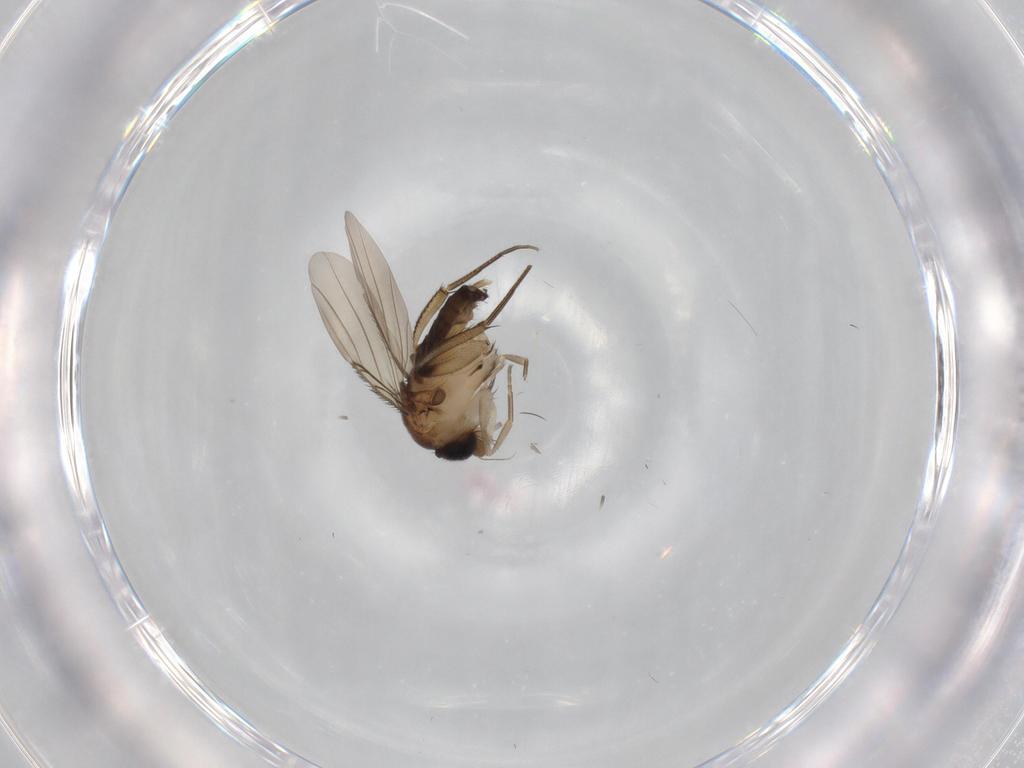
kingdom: Animalia
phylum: Arthropoda
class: Insecta
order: Diptera
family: Phoridae
